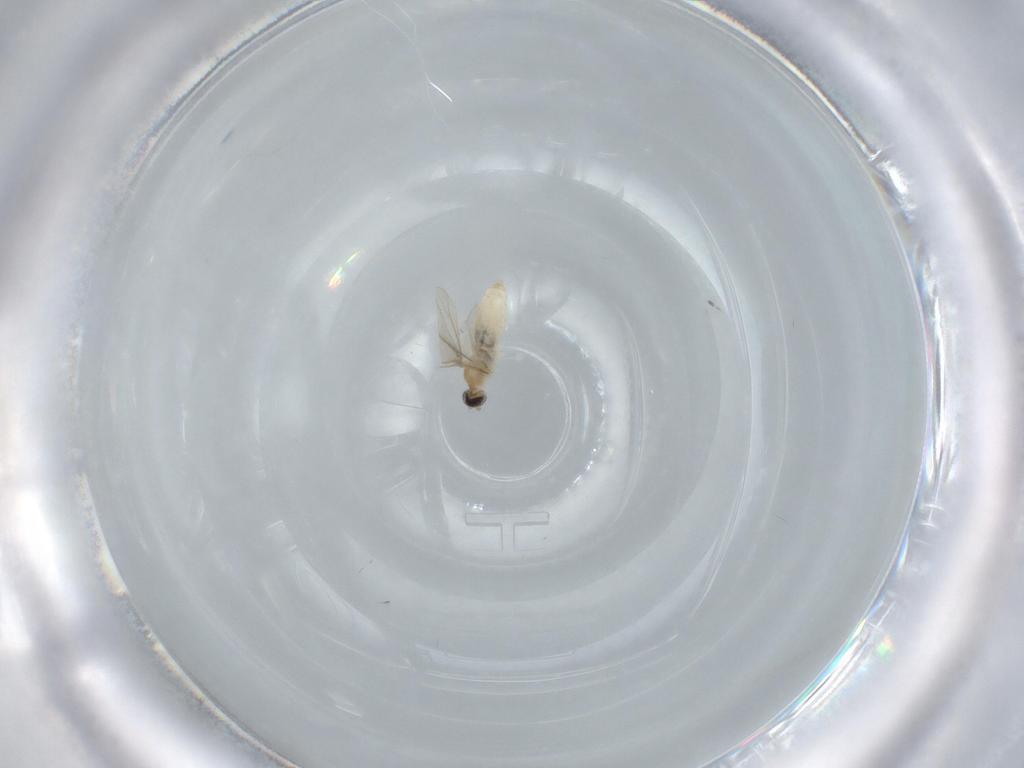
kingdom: Animalia
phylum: Arthropoda
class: Insecta
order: Diptera
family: Cecidomyiidae
